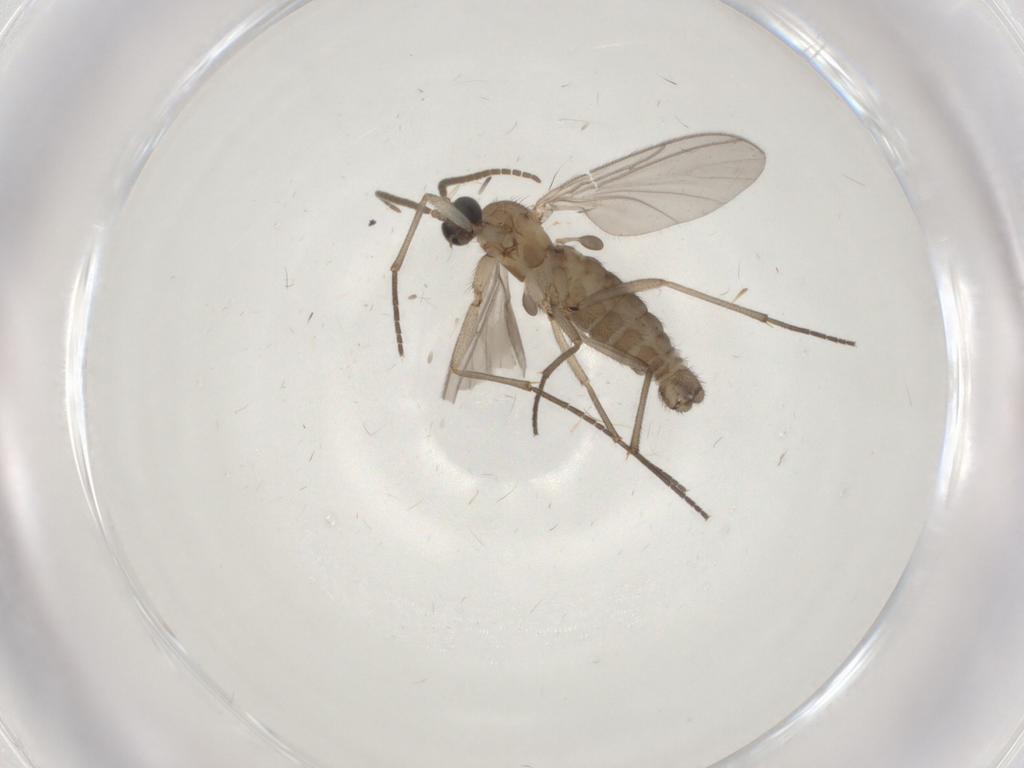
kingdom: Animalia
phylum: Arthropoda
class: Insecta
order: Diptera
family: Dolichopodidae
